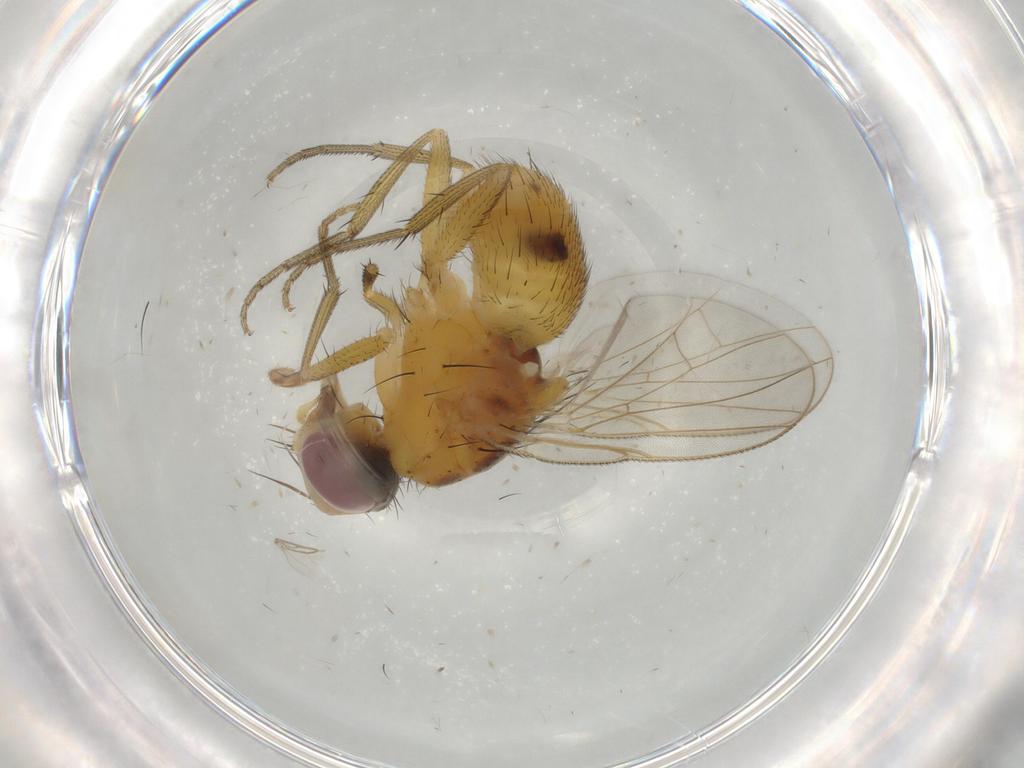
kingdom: Animalia
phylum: Arthropoda
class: Insecta
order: Diptera
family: Muscidae
